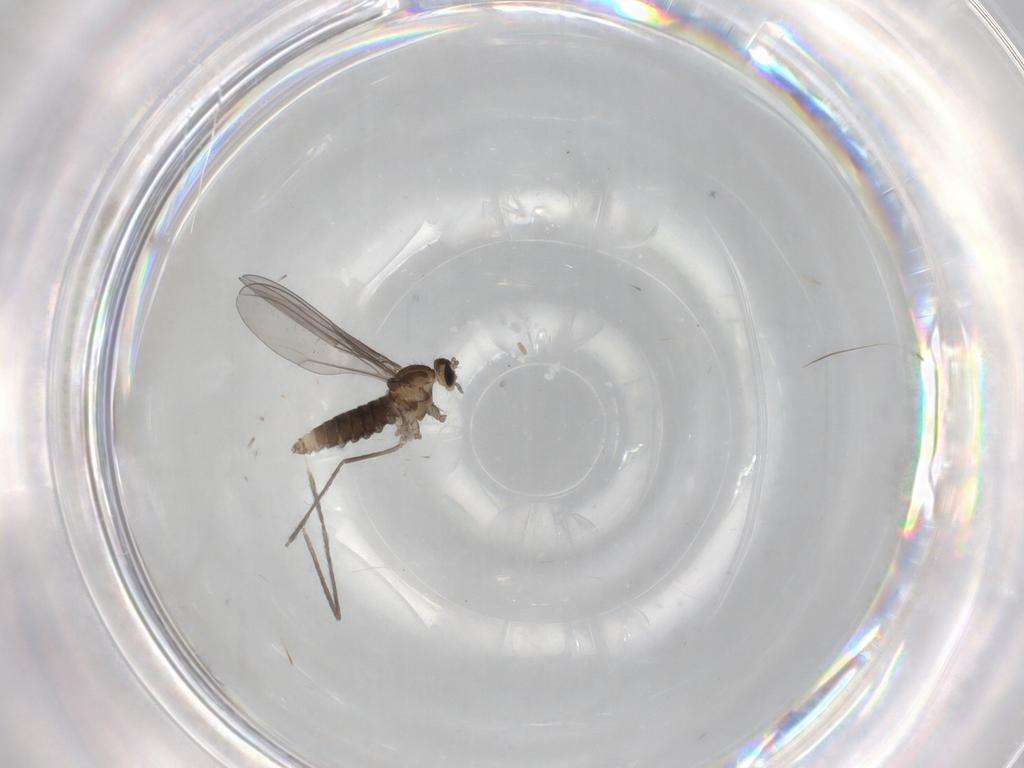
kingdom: Animalia
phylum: Arthropoda
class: Insecta
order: Diptera
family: Cecidomyiidae
